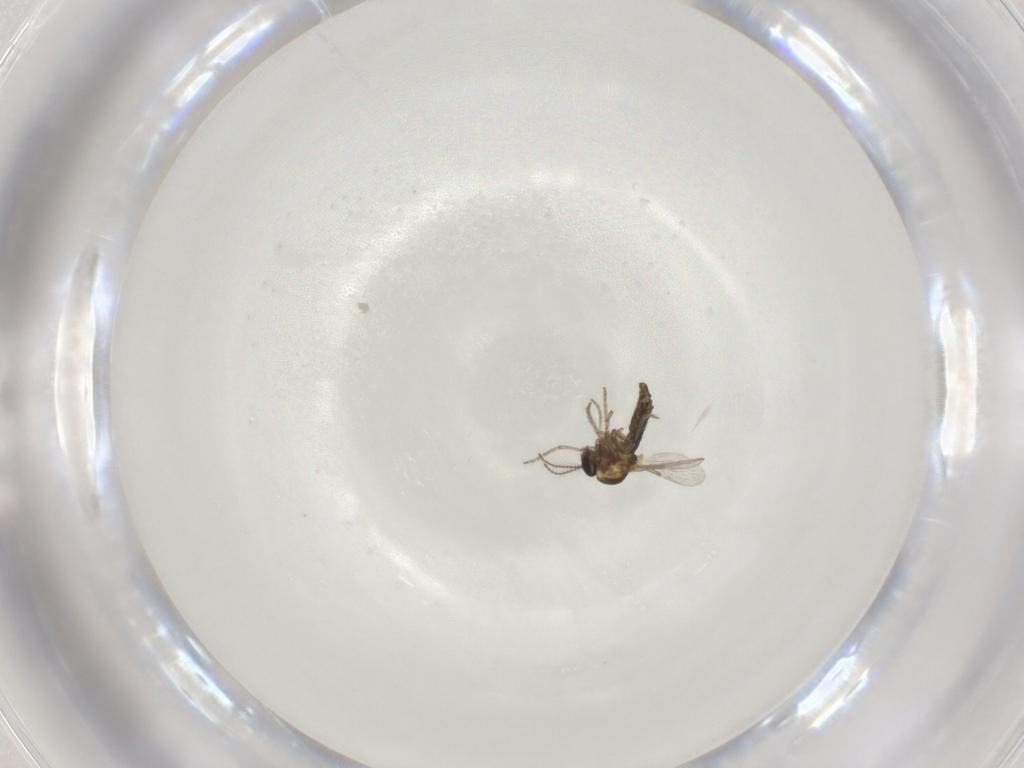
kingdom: Animalia
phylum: Arthropoda
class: Insecta
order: Diptera
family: Ceratopogonidae
